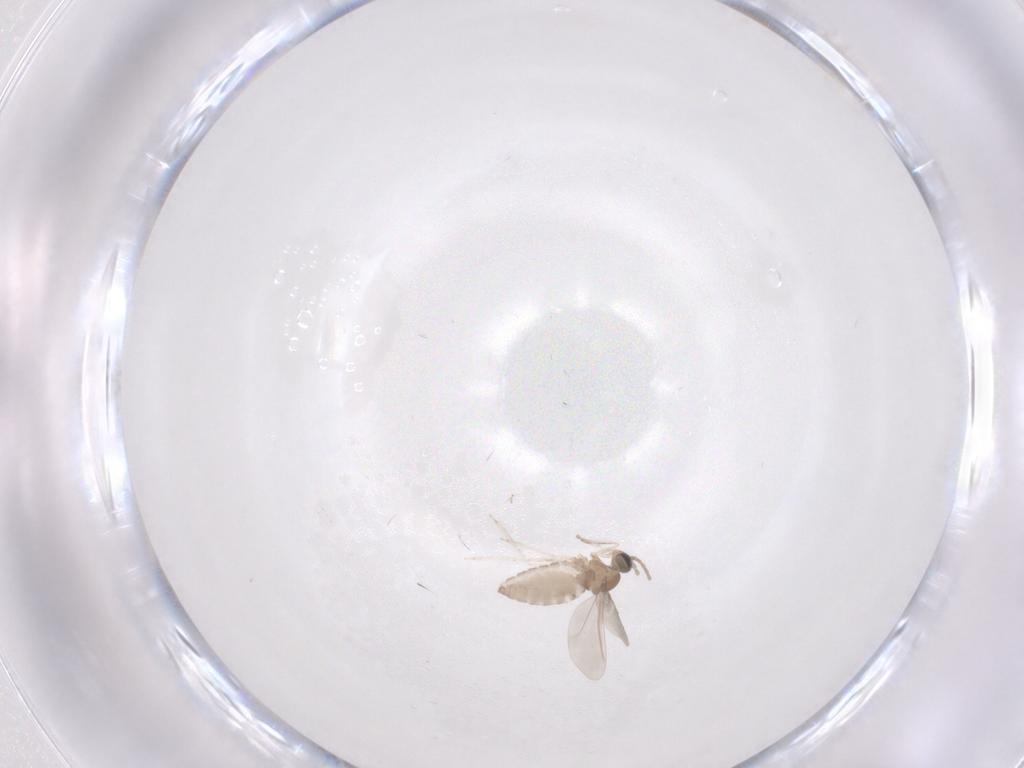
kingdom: Animalia
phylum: Arthropoda
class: Insecta
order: Diptera
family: Cecidomyiidae
